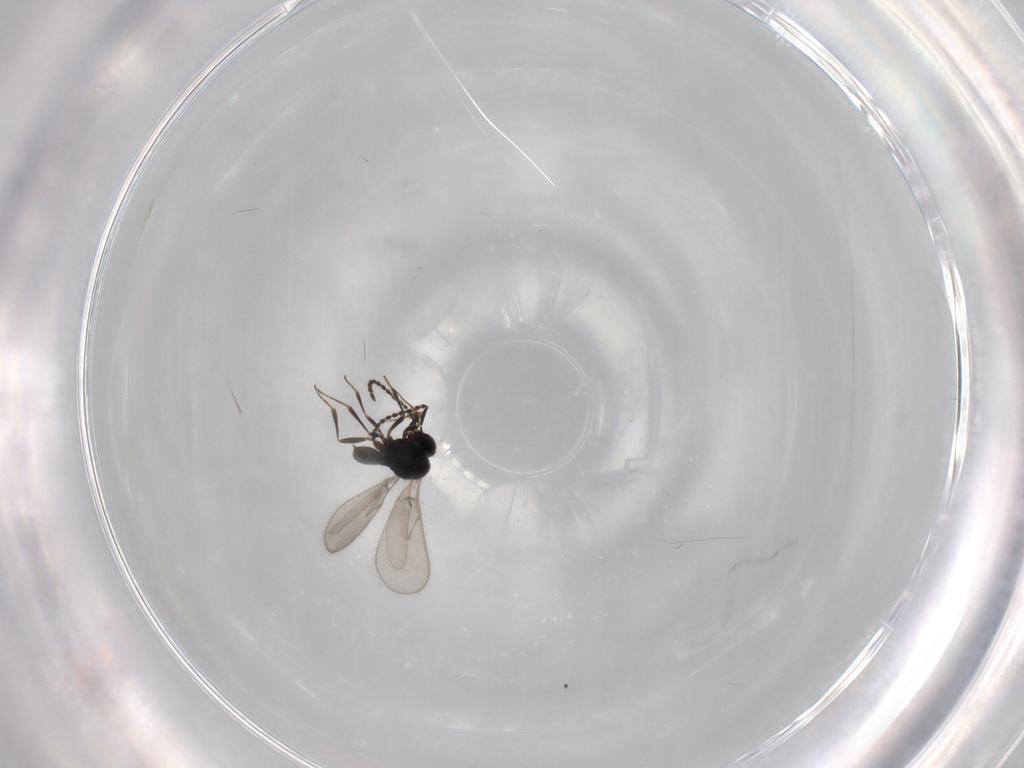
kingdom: Animalia
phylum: Arthropoda
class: Insecta
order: Hymenoptera
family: Scelionidae
